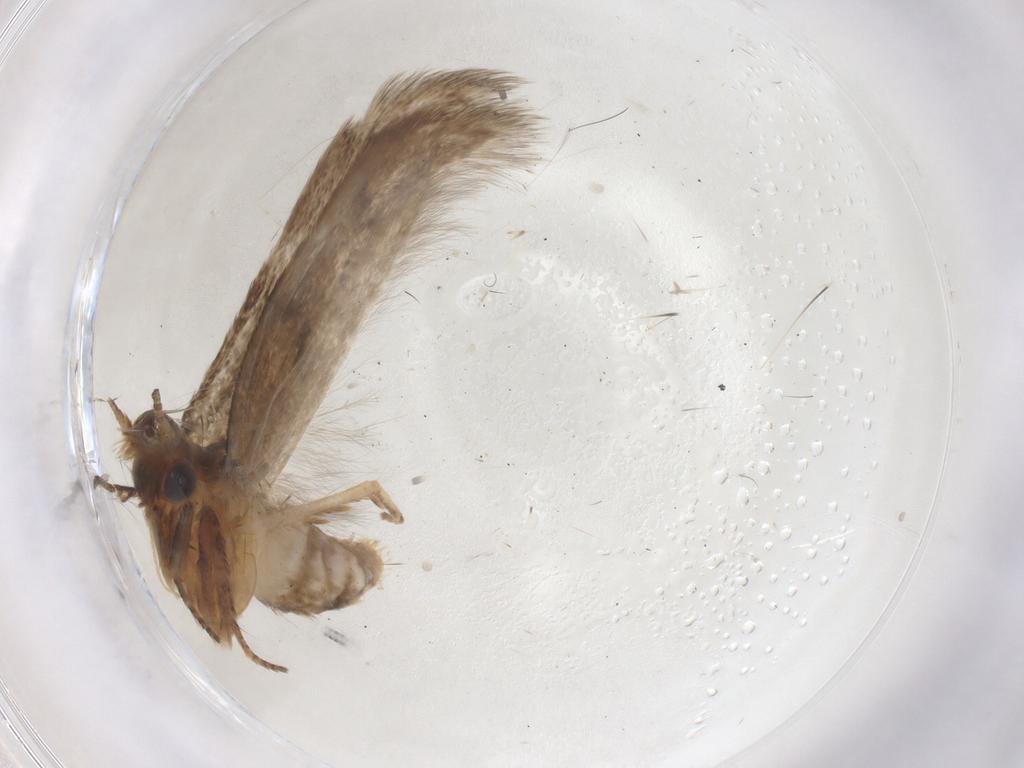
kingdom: Animalia
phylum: Arthropoda
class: Insecta
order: Lepidoptera
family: Coleophoridae
